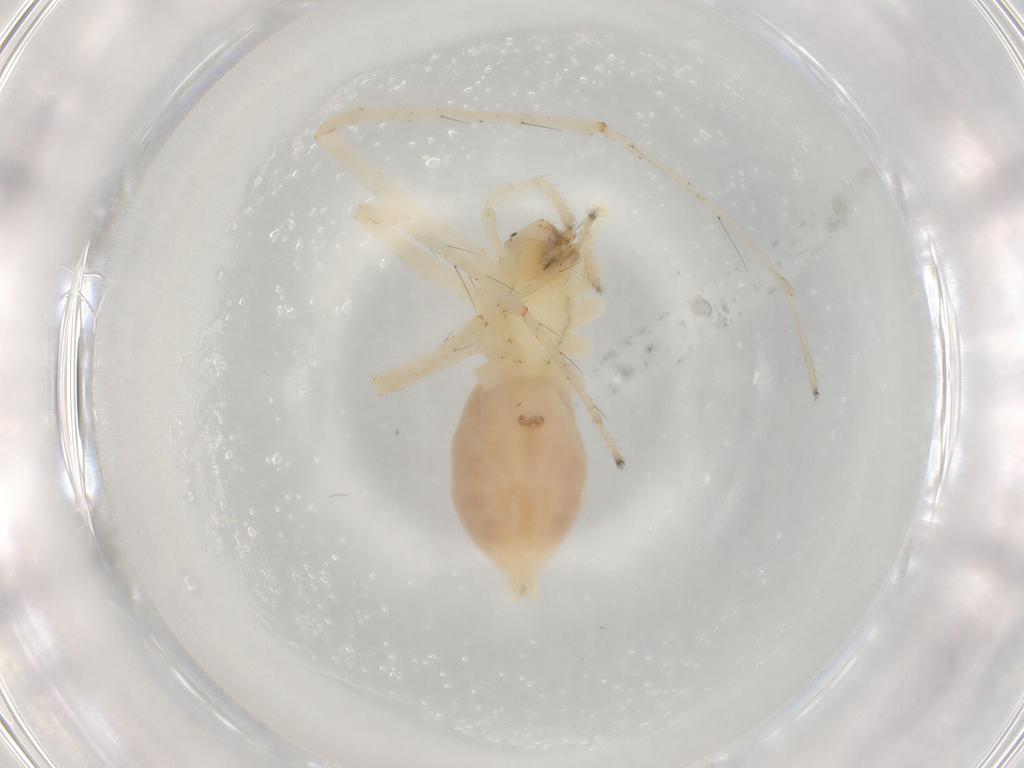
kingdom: Animalia
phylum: Arthropoda
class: Arachnida
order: Araneae
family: Anyphaenidae
